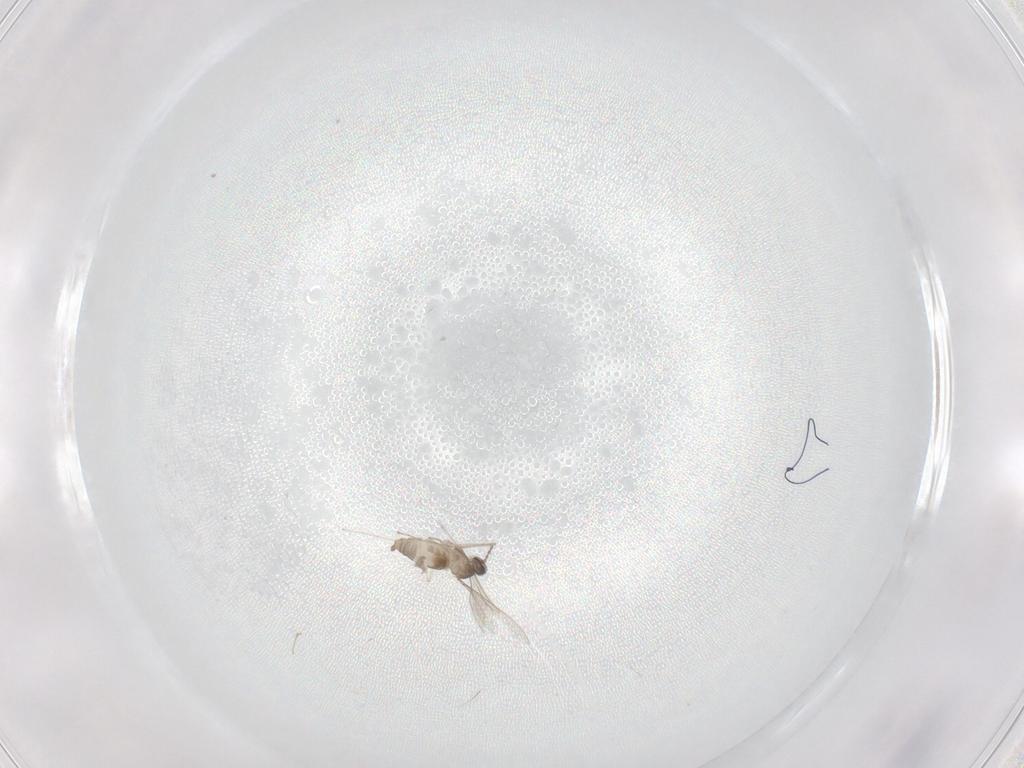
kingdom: Animalia
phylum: Arthropoda
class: Insecta
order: Diptera
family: Cecidomyiidae
